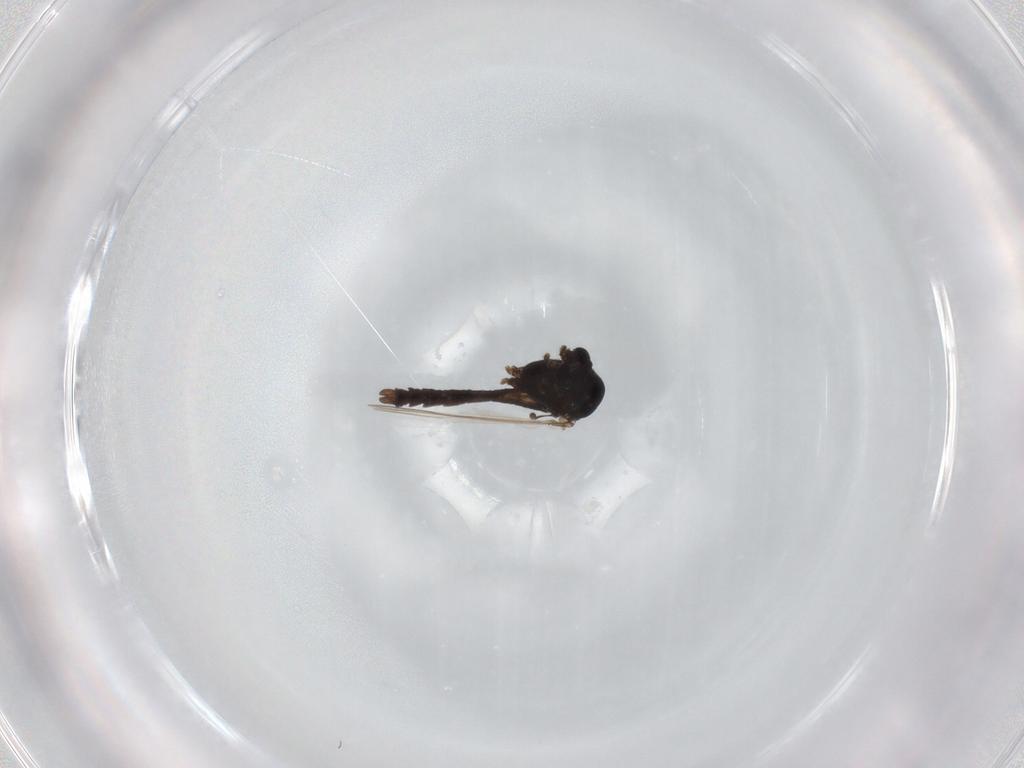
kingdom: Animalia
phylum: Arthropoda
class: Insecta
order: Diptera
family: Chironomidae
